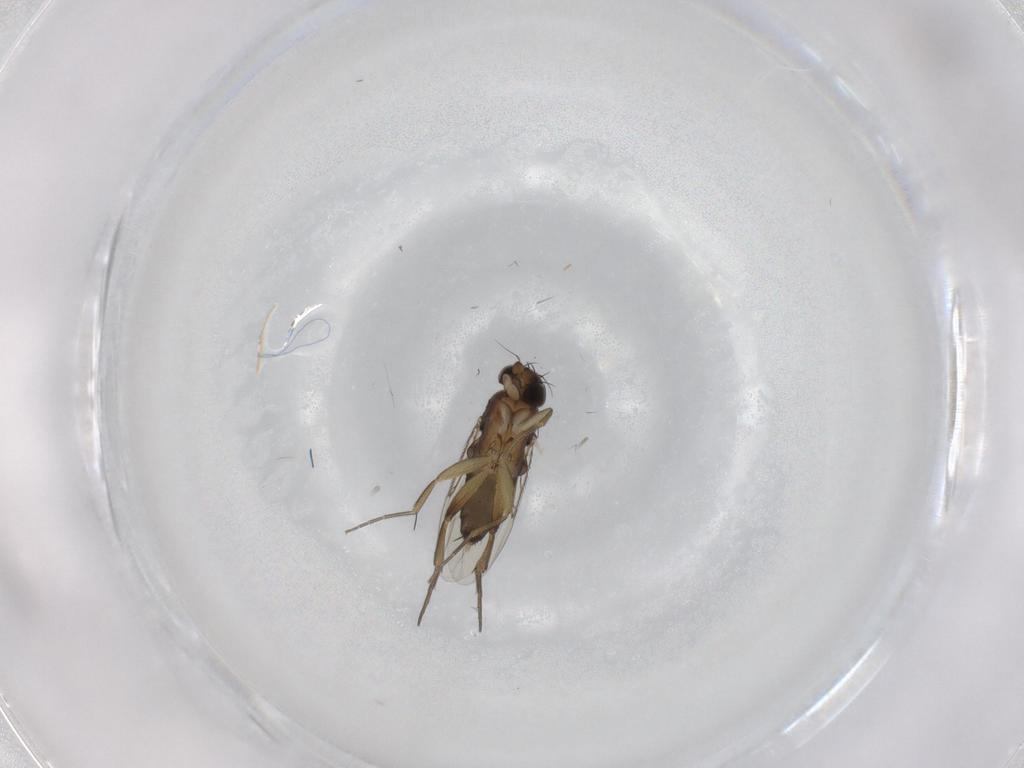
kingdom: Animalia
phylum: Arthropoda
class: Insecta
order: Diptera
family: Phoridae
